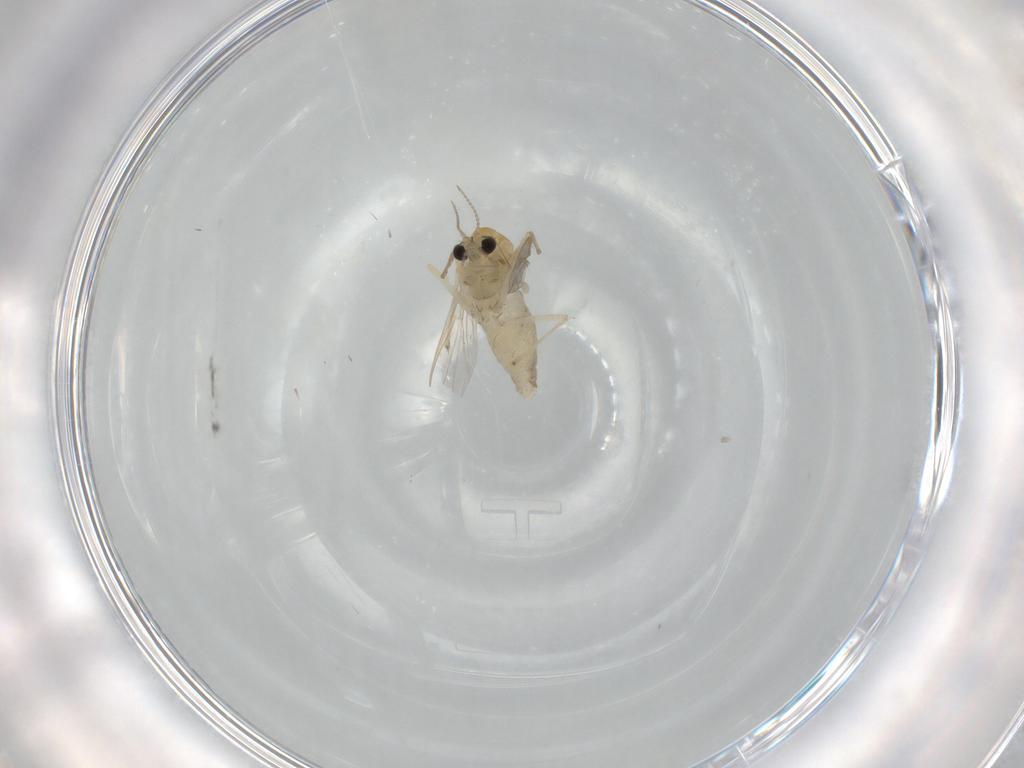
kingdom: Animalia
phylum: Arthropoda
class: Insecta
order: Diptera
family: Chironomidae
